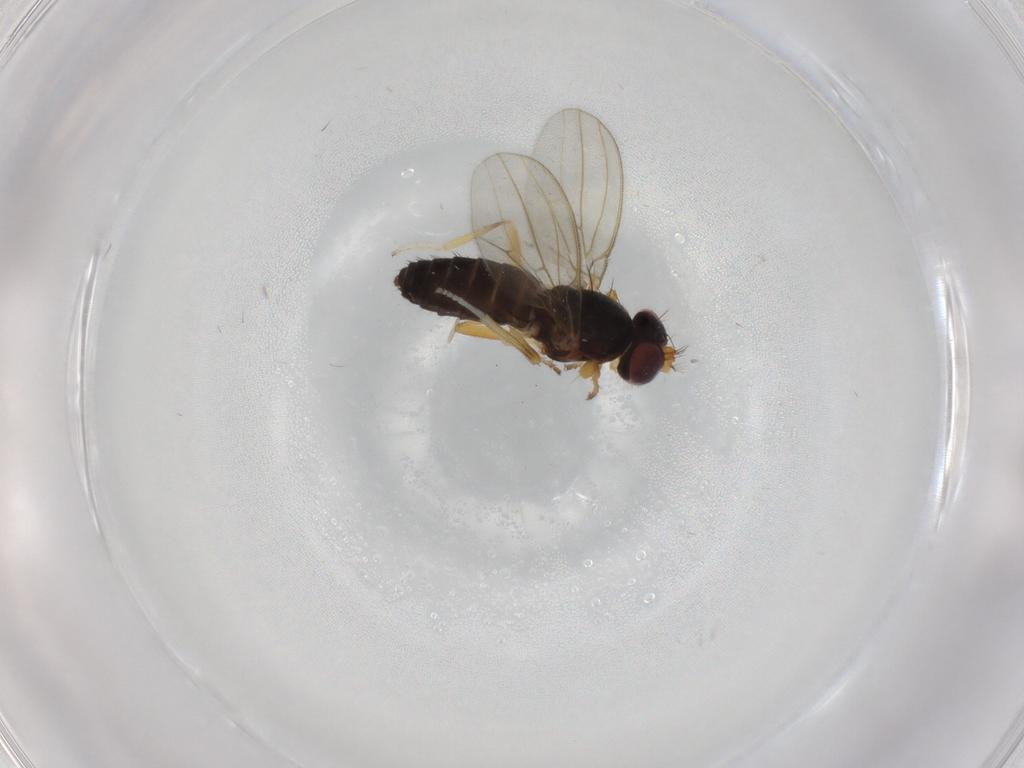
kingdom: Animalia
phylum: Arthropoda
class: Insecta
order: Diptera
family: Periscelididae
